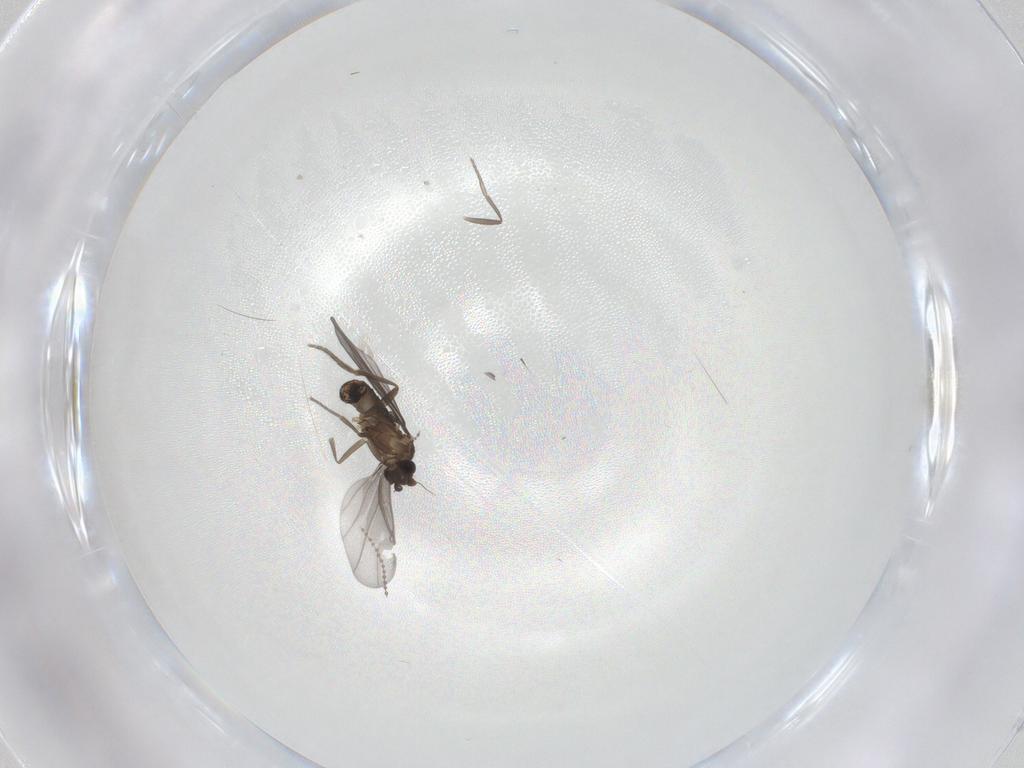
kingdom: Animalia
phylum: Arthropoda
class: Insecta
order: Diptera
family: Phoridae
